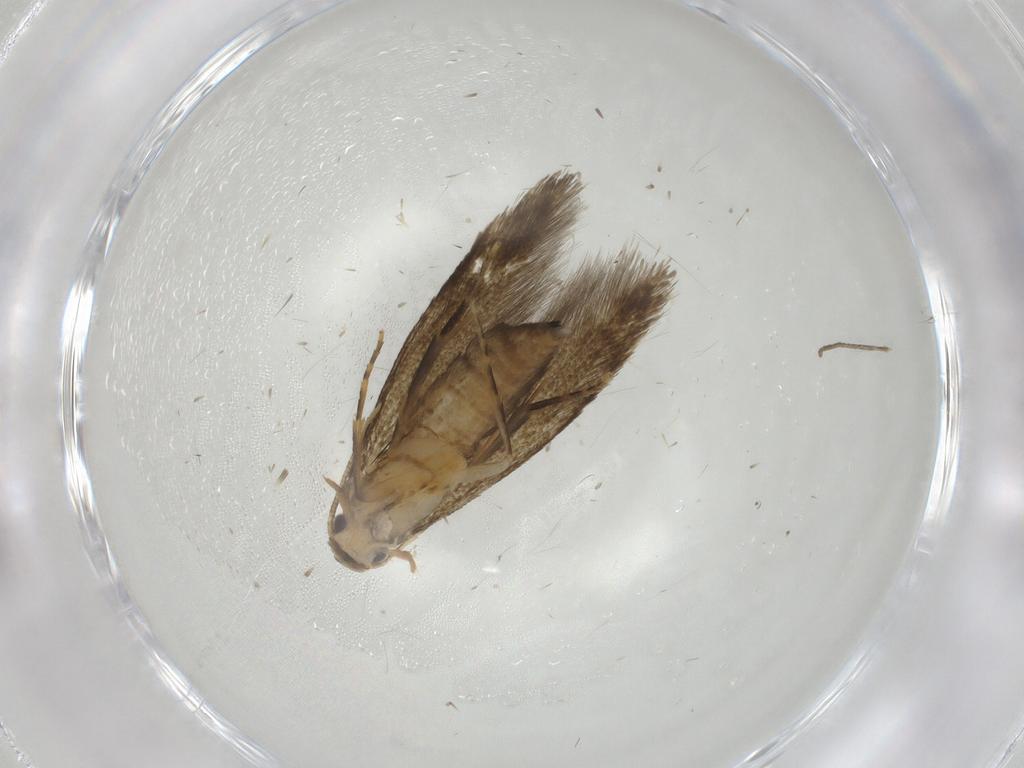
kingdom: Animalia
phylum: Arthropoda
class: Insecta
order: Lepidoptera
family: Tineidae
